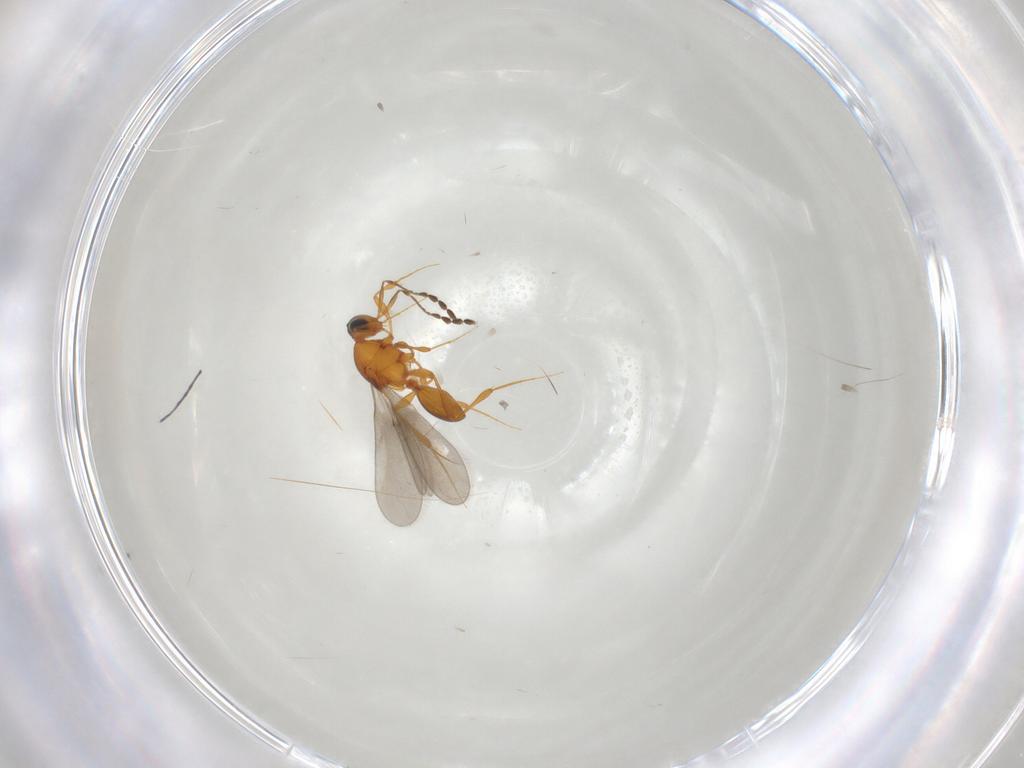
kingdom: Animalia
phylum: Arthropoda
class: Insecta
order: Hymenoptera
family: Platygastridae
